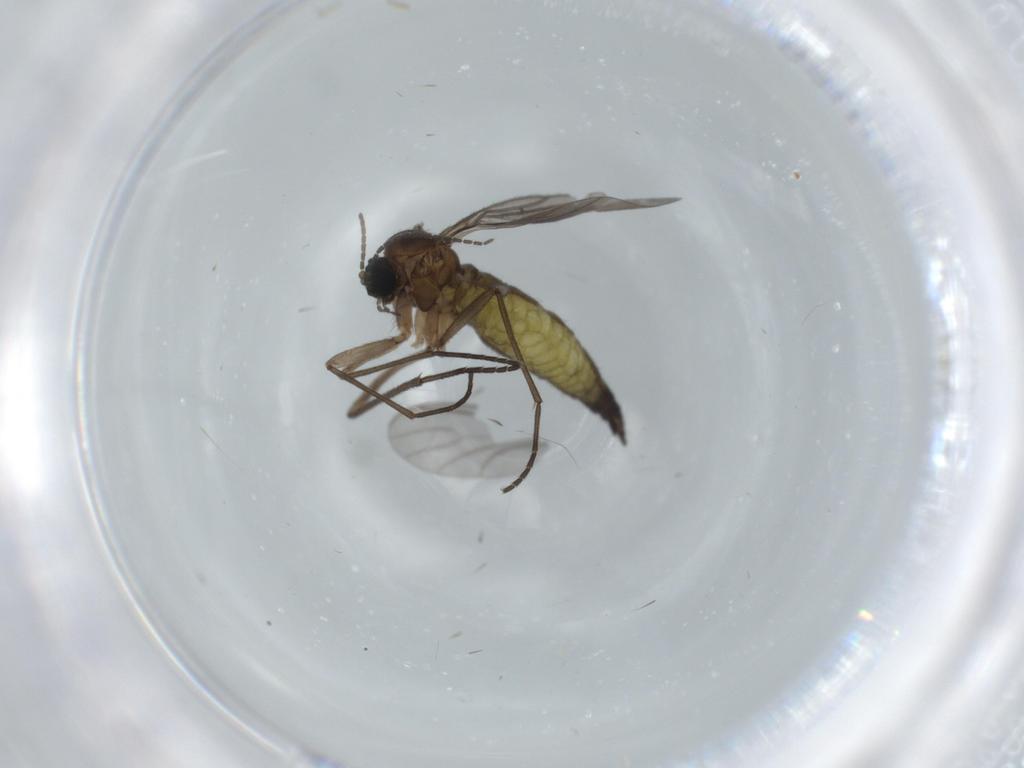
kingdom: Animalia
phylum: Arthropoda
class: Insecta
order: Diptera
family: Sciaridae
